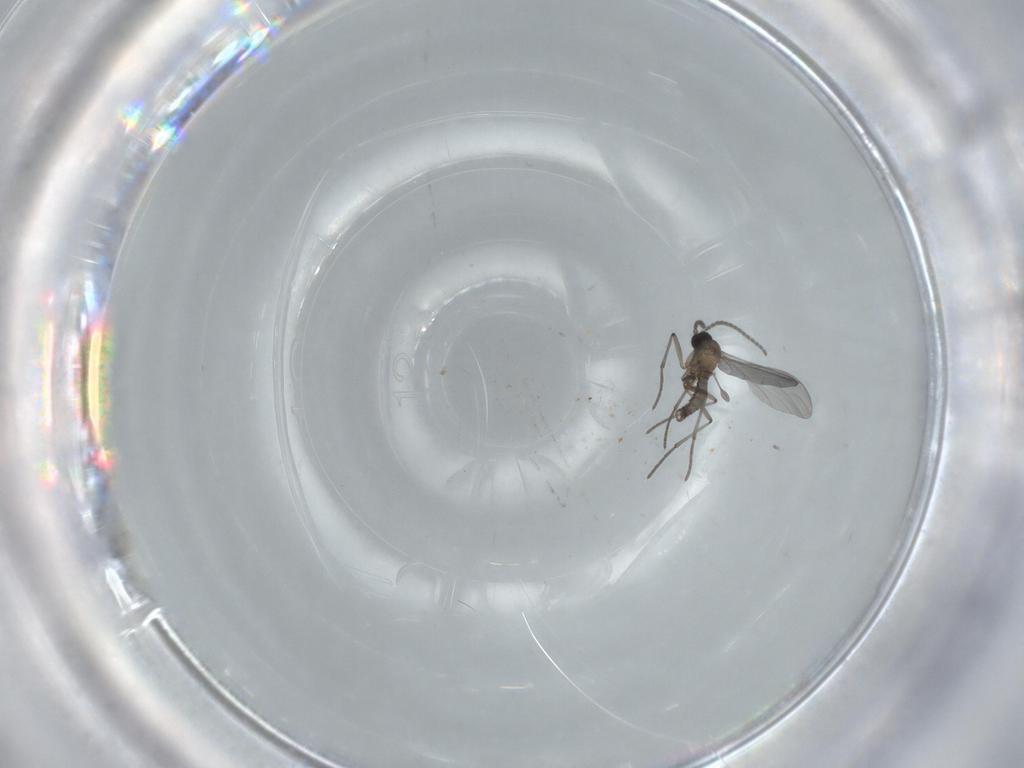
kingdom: Animalia
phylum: Arthropoda
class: Insecta
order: Diptera
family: Sciaridae
